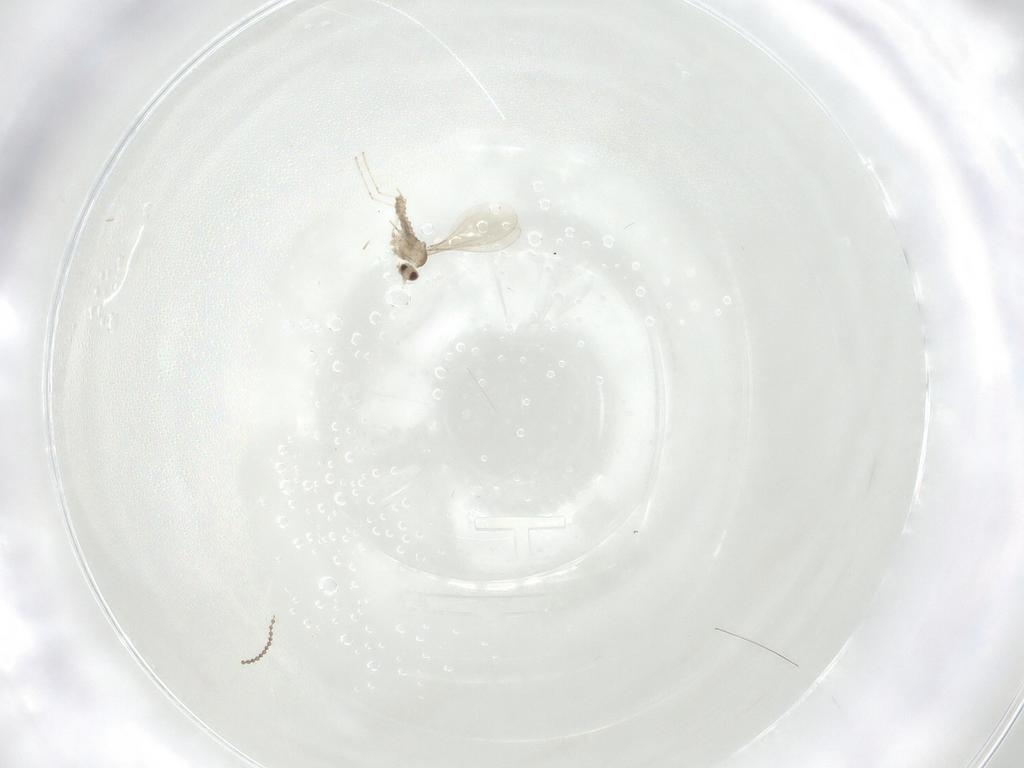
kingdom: Animalia
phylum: Arthropoda
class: Insecta
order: Diptera
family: Cecidomyiidae
